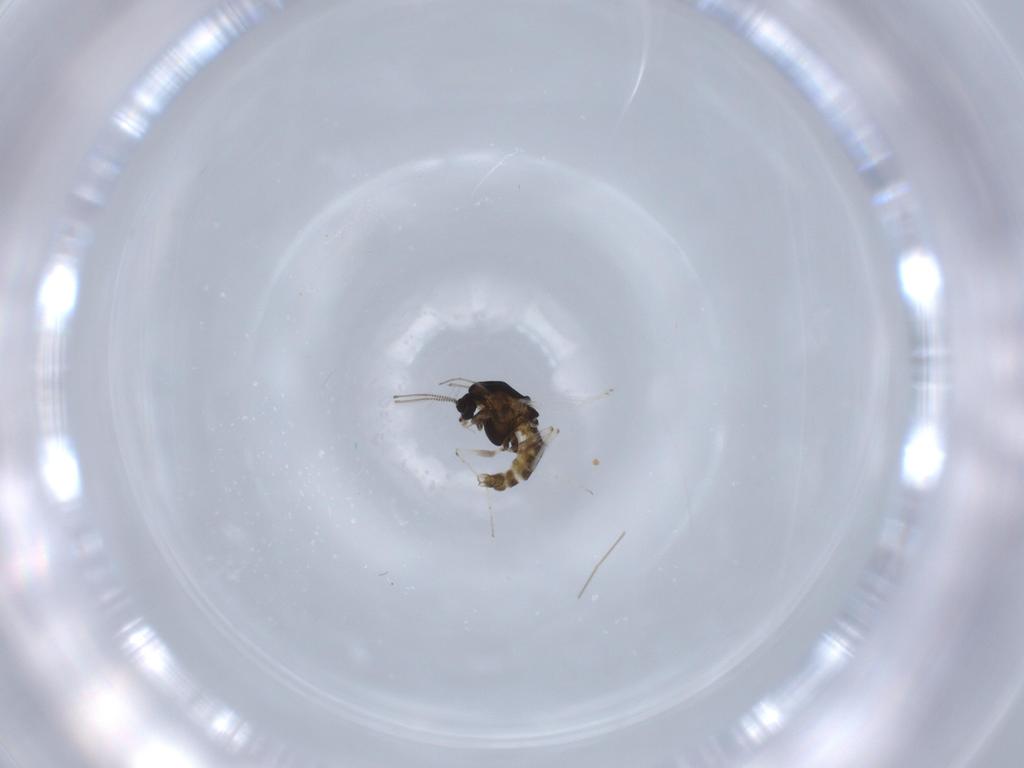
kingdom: Animalia
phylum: Arthropoda
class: Insecta
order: Diptera
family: Chironomidae
